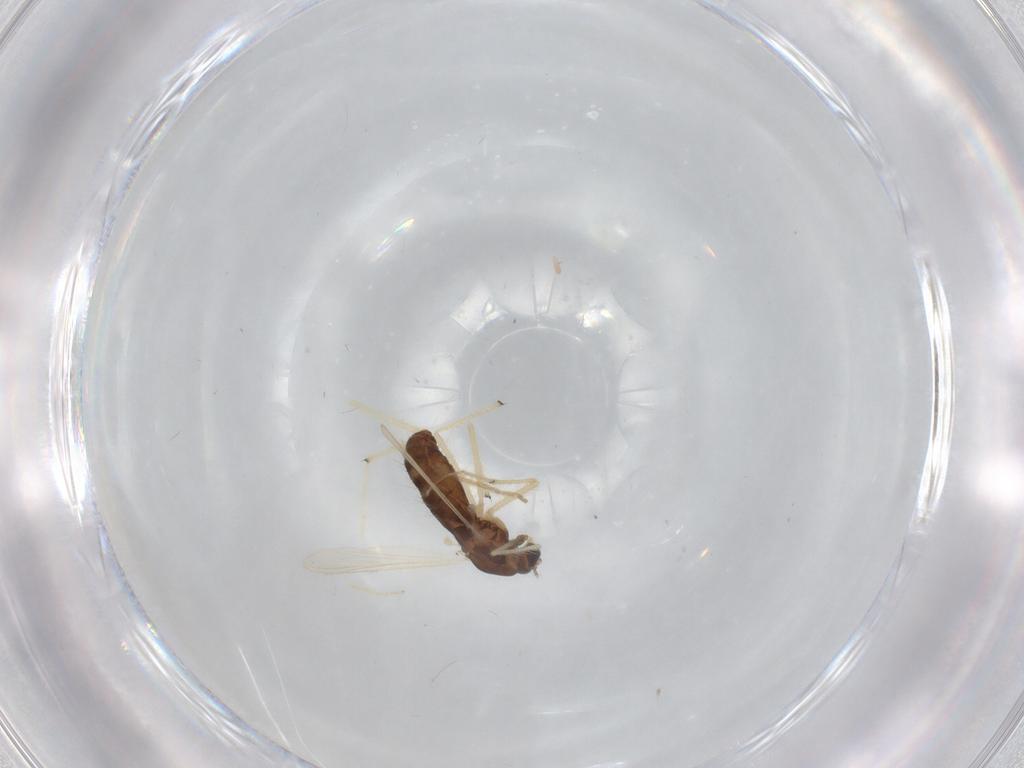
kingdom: Animalia
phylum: Arthropoda
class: Insecta
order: Diptera
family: Chironomidae
